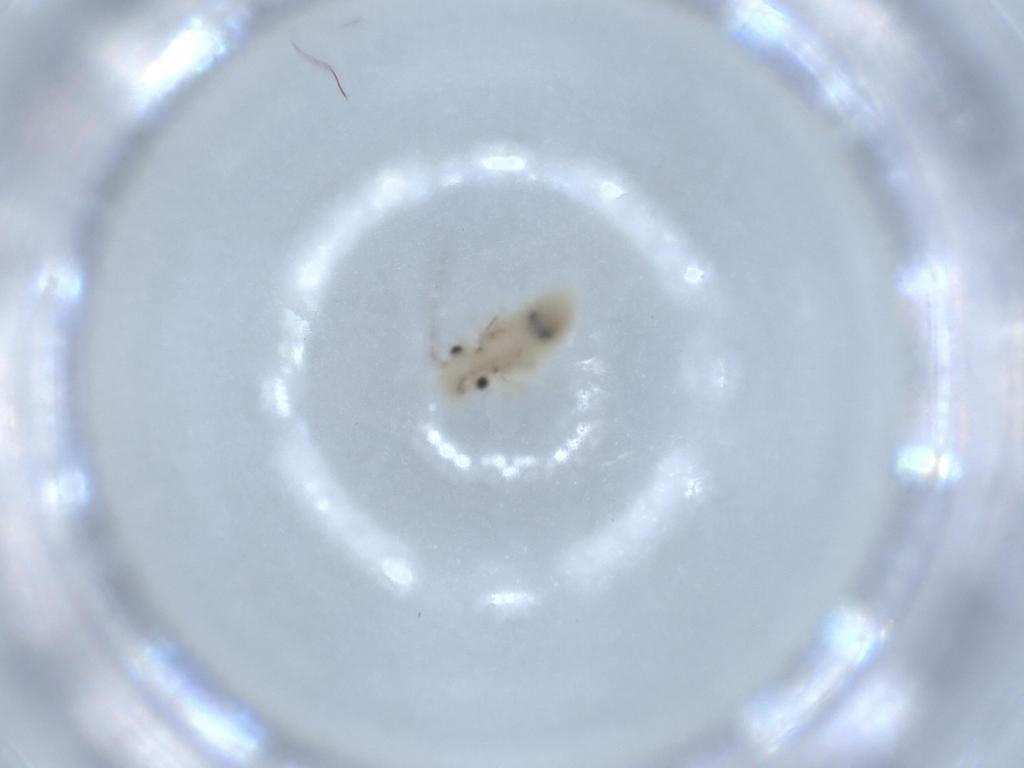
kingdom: Animalia
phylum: Arthropoda
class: Insecta
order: Psocodea
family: Caeciliusidae
